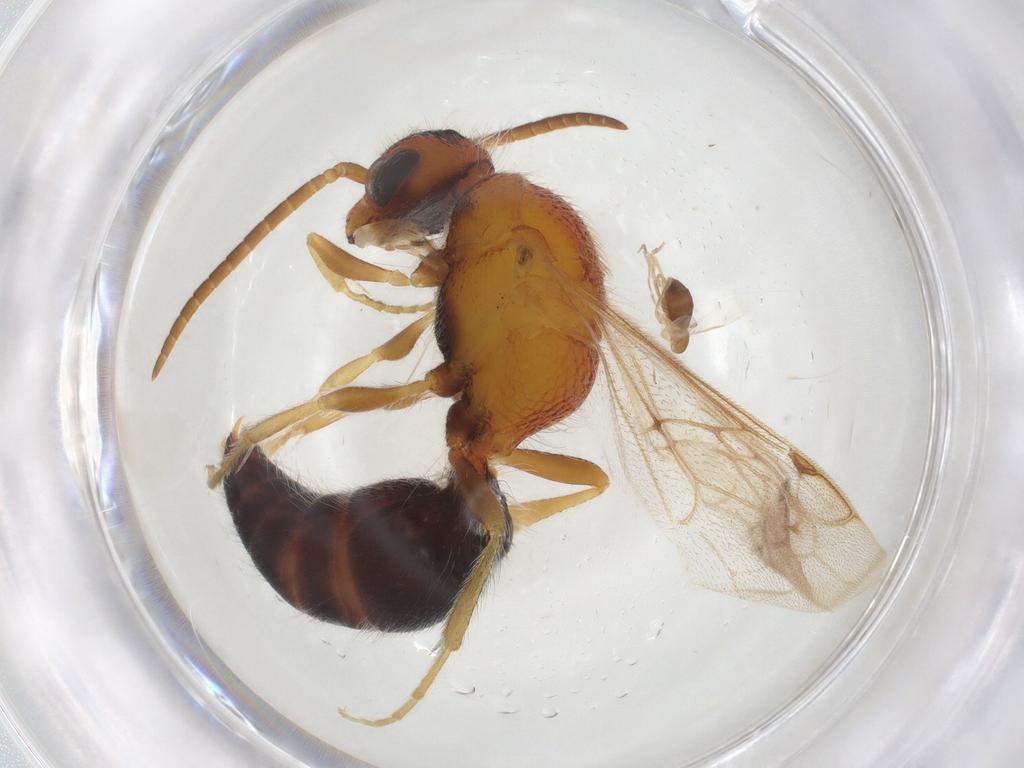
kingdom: Animalia
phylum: Arthropoda
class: Insecta
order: Diptera
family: Phoridae
